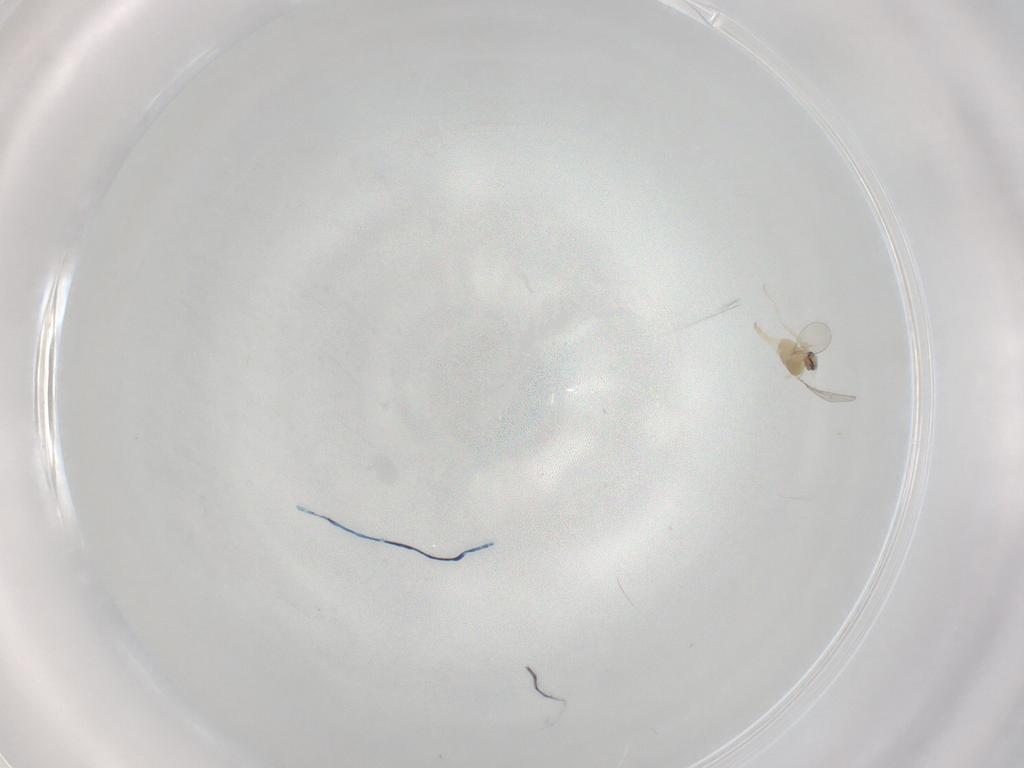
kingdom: Animalia
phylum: Arthropoda
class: Insecta
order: Diptera
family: Cecidomyiidae
